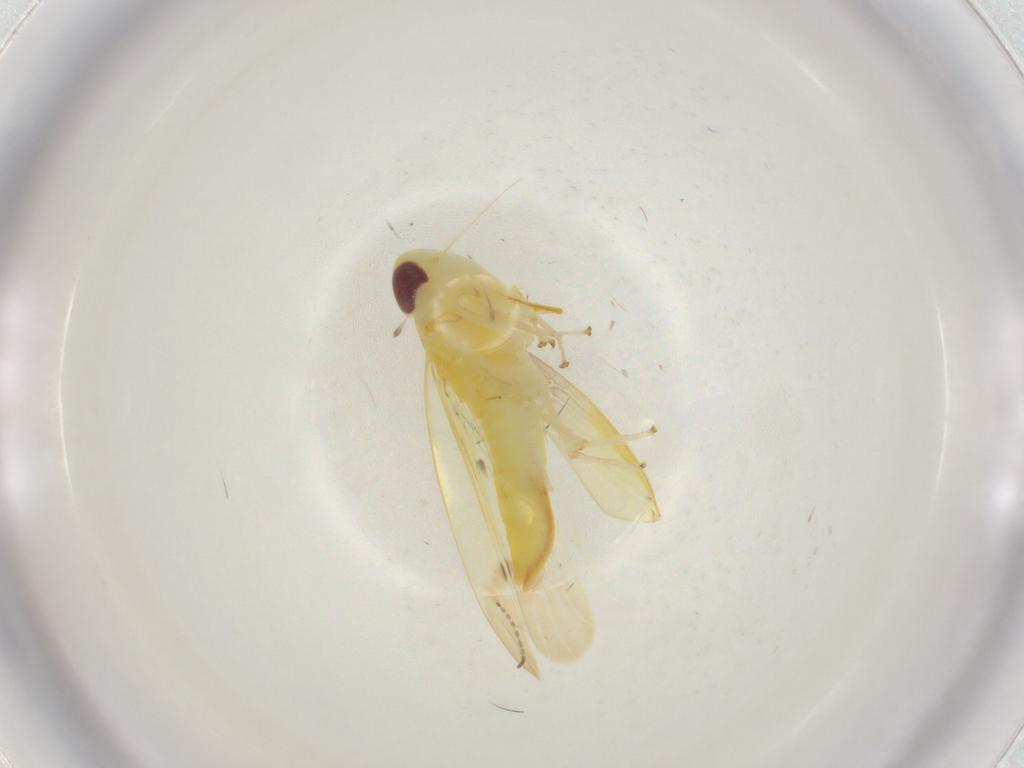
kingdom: Animalia
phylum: Arthropoda
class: Insecta
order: Hemiptera
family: Cicadellidae
